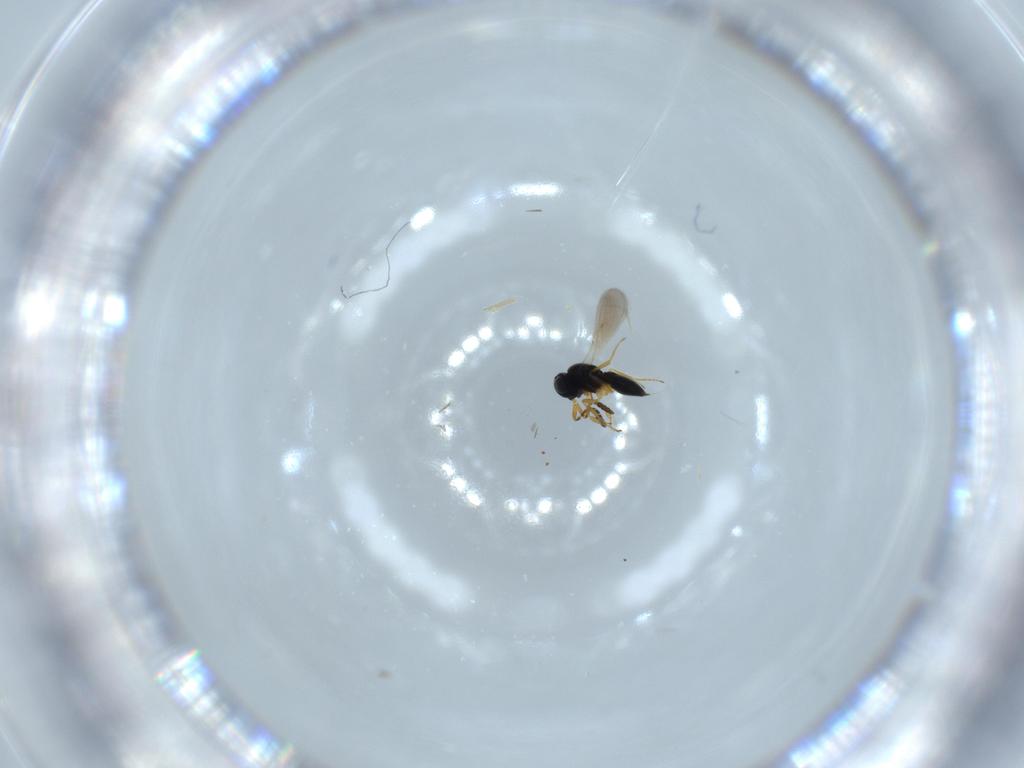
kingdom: Animalia
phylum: Arthropoda
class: Insecta
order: Hymenoptera
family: Scelionidae
